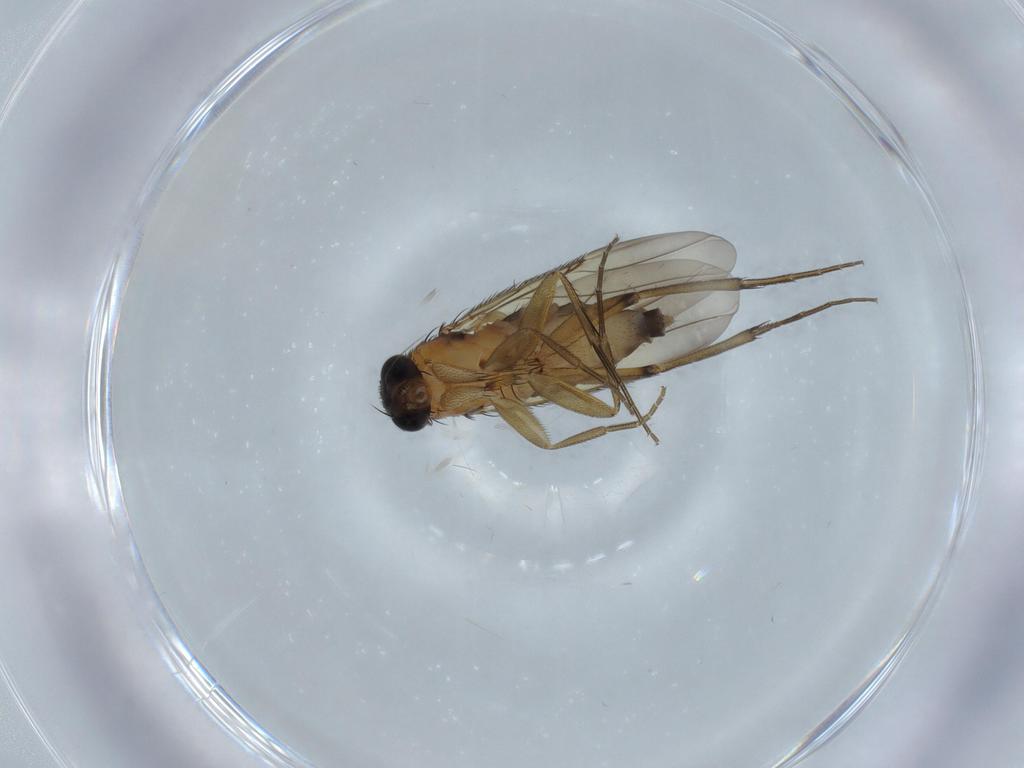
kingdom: Animalia
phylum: Arthropoda
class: Insecta
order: Diptera
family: Phoridae
